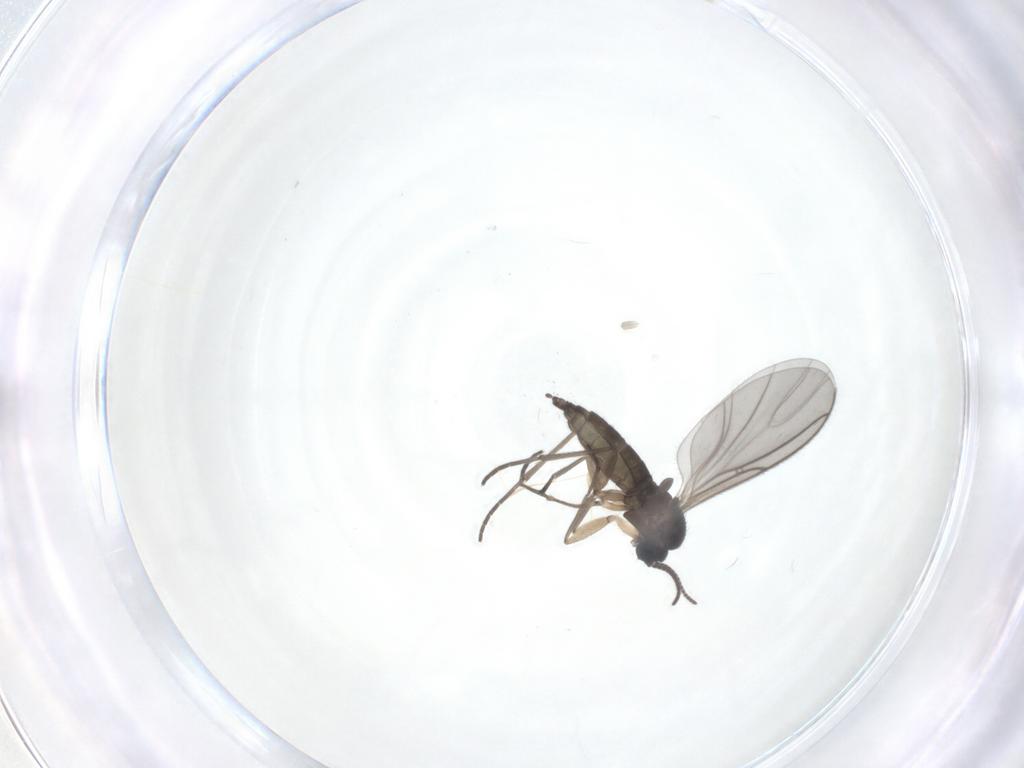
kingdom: Animalia
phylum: Arthropoda
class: Insecta
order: Diptera
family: Sciaridae
